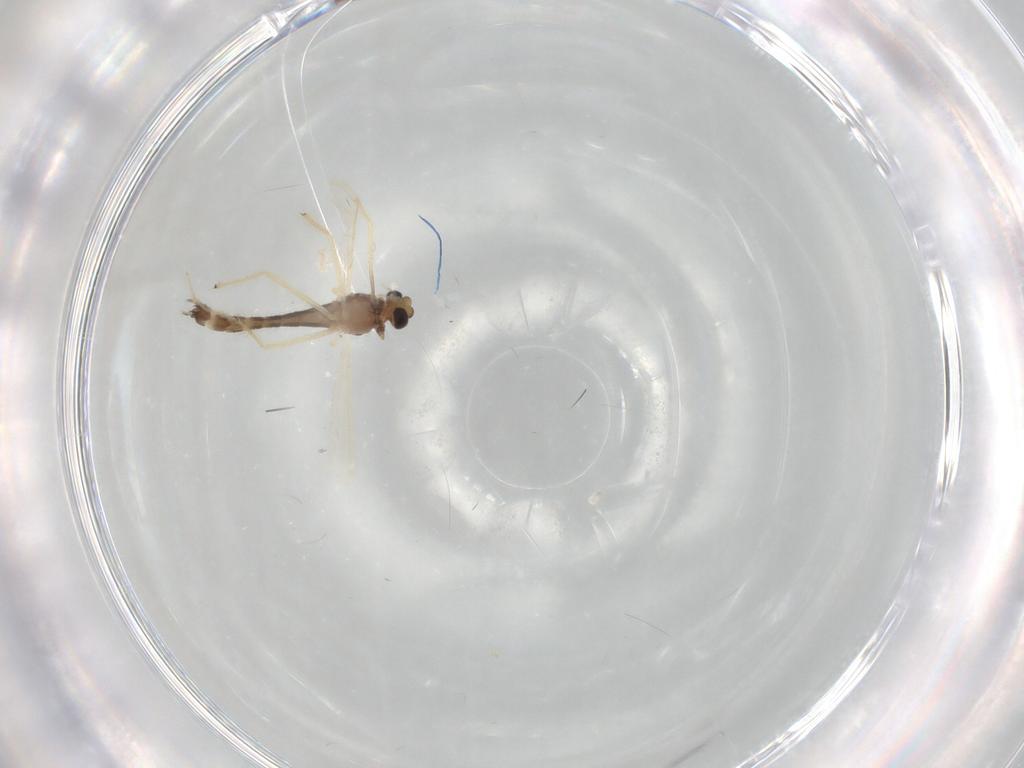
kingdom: Animalia
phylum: Arthropoda
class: Insecta
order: Diptera
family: Chironomidae
